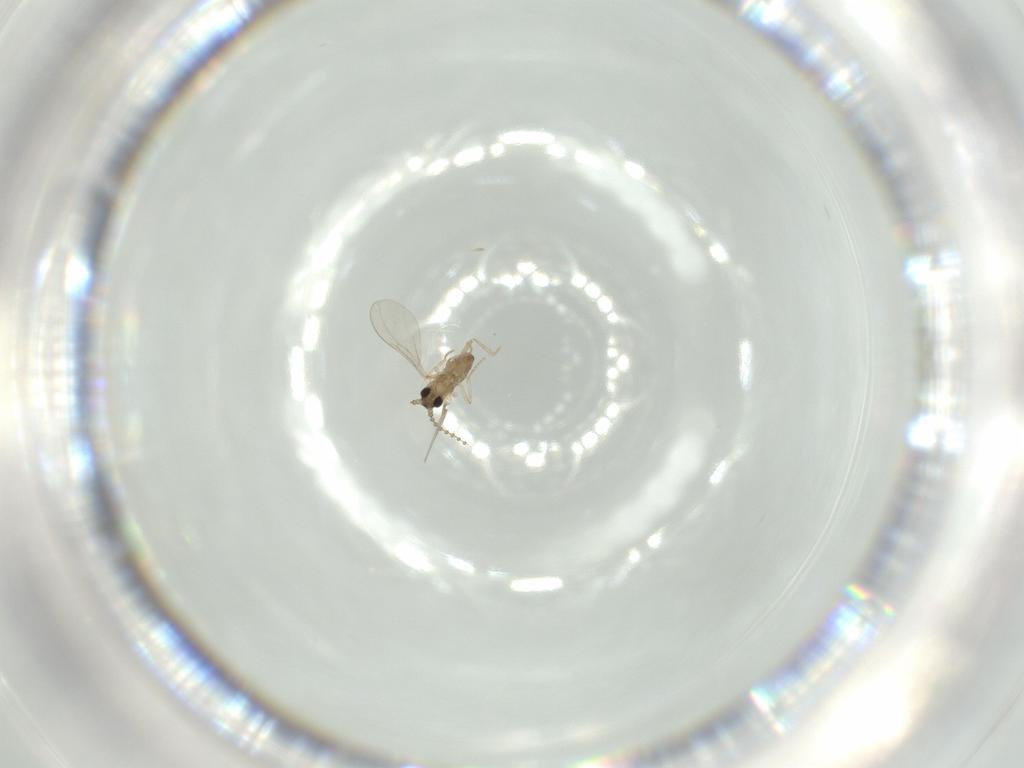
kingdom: Animalia
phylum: Arthropoda
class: Insecta
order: Diptera
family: Cecidomyiidae
